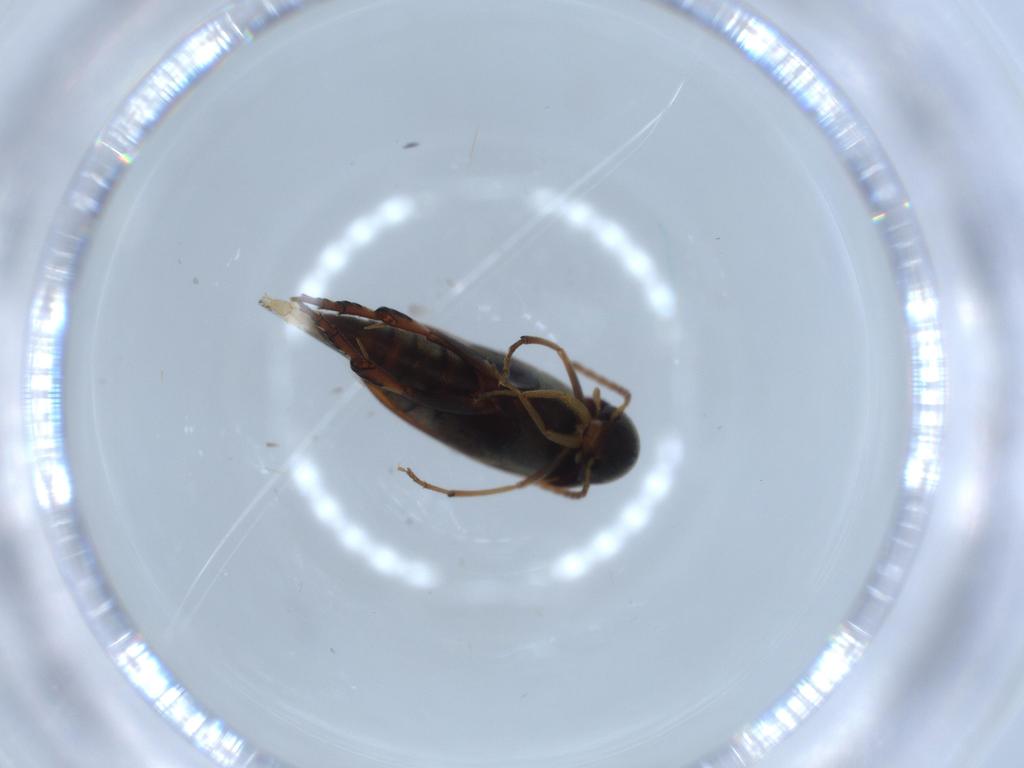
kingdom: Animalia
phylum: Arthropoda
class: Insecta
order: Coleoptera
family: Mordellidae
